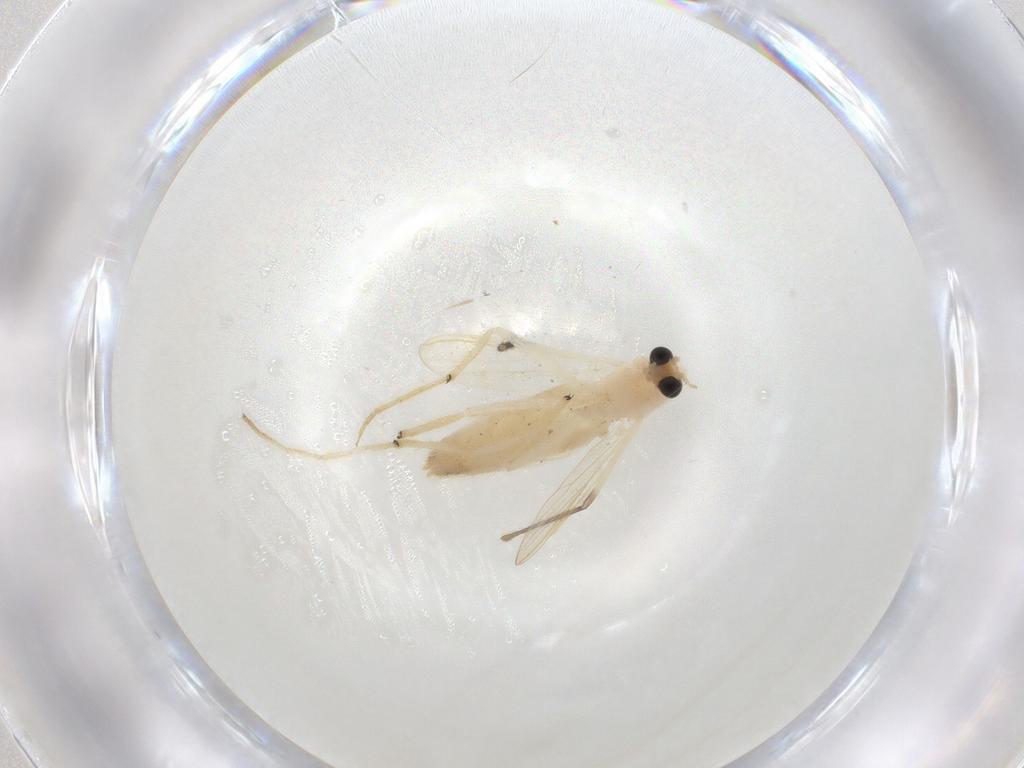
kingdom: Animalia
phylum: Arthropoda
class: Insecta
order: Diptera
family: Chironomidae
